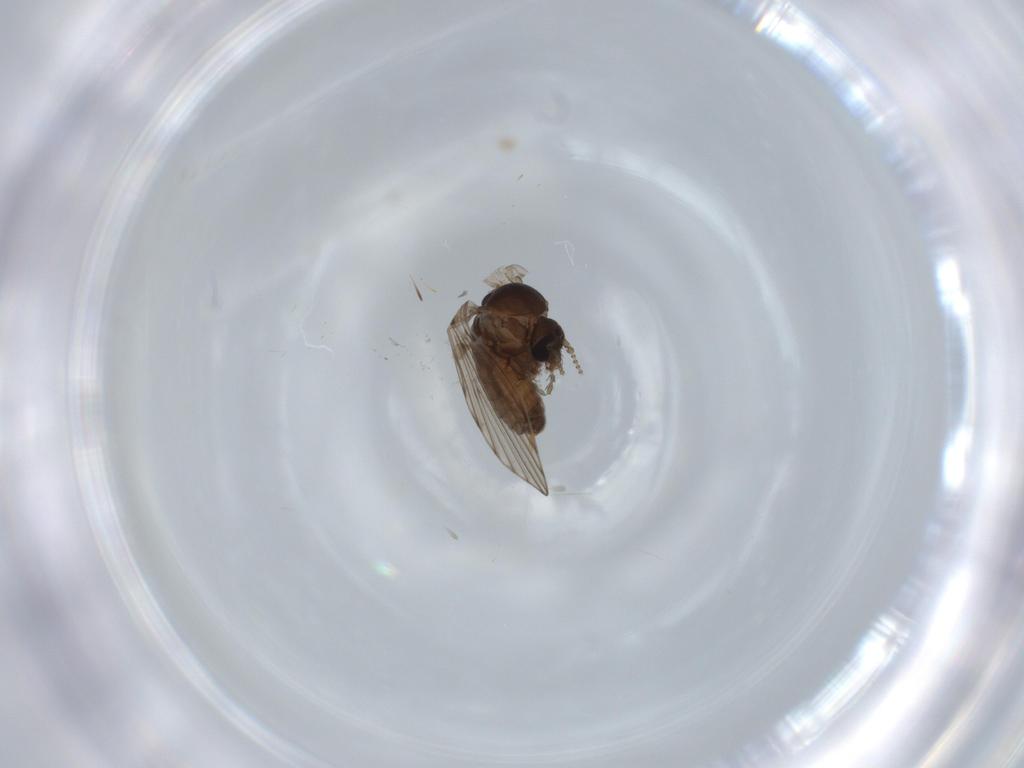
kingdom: Animalia
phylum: Arthropoda
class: Insecta
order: Diptera
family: Psychodidae
